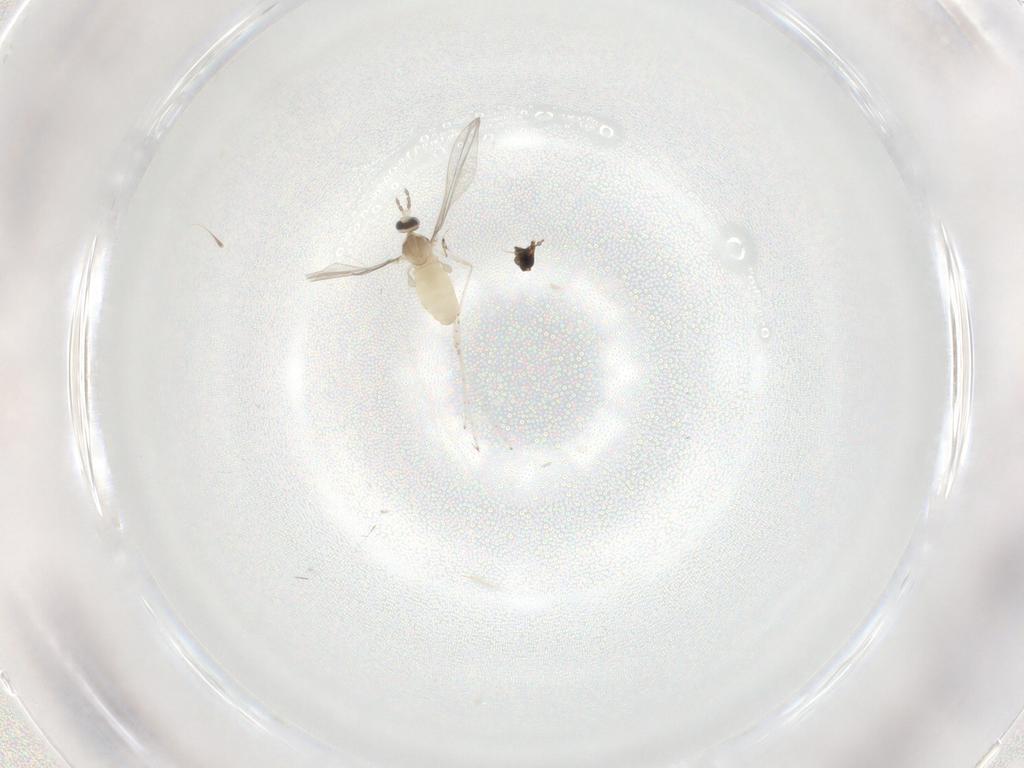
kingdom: Animalia
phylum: Arthropoda
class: Insecta
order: Diptera
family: Cecidomyiidae
